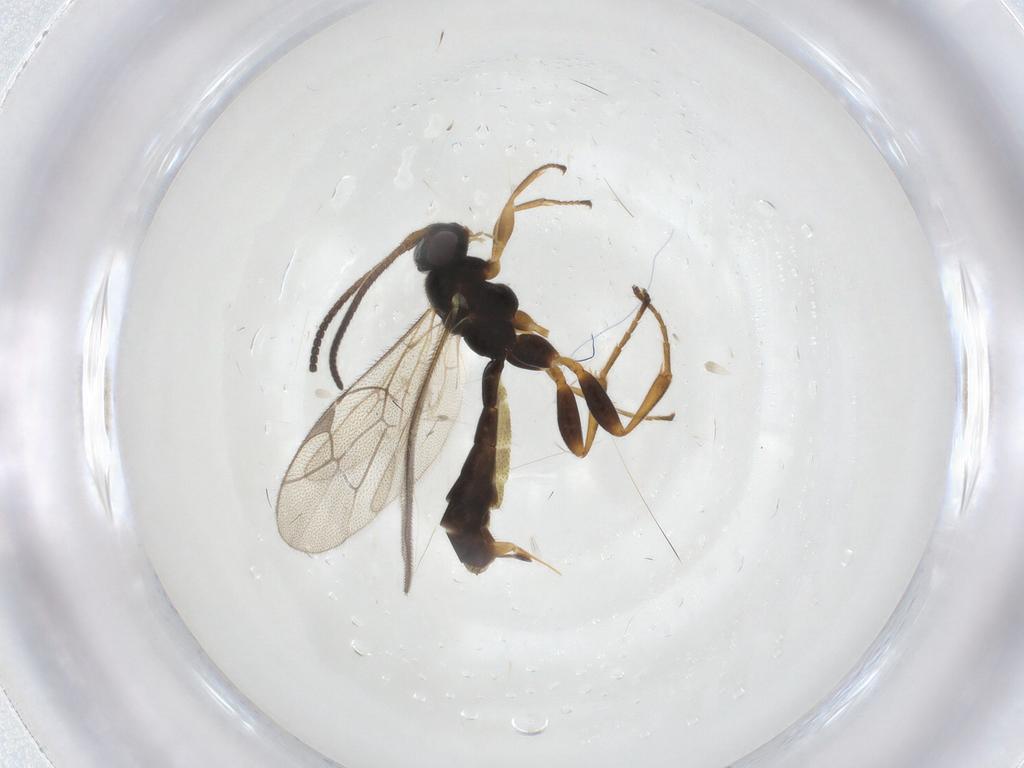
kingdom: Animalia
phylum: Arthropoda
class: Insecta
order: Hymenoptera
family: Ichneumonidae
